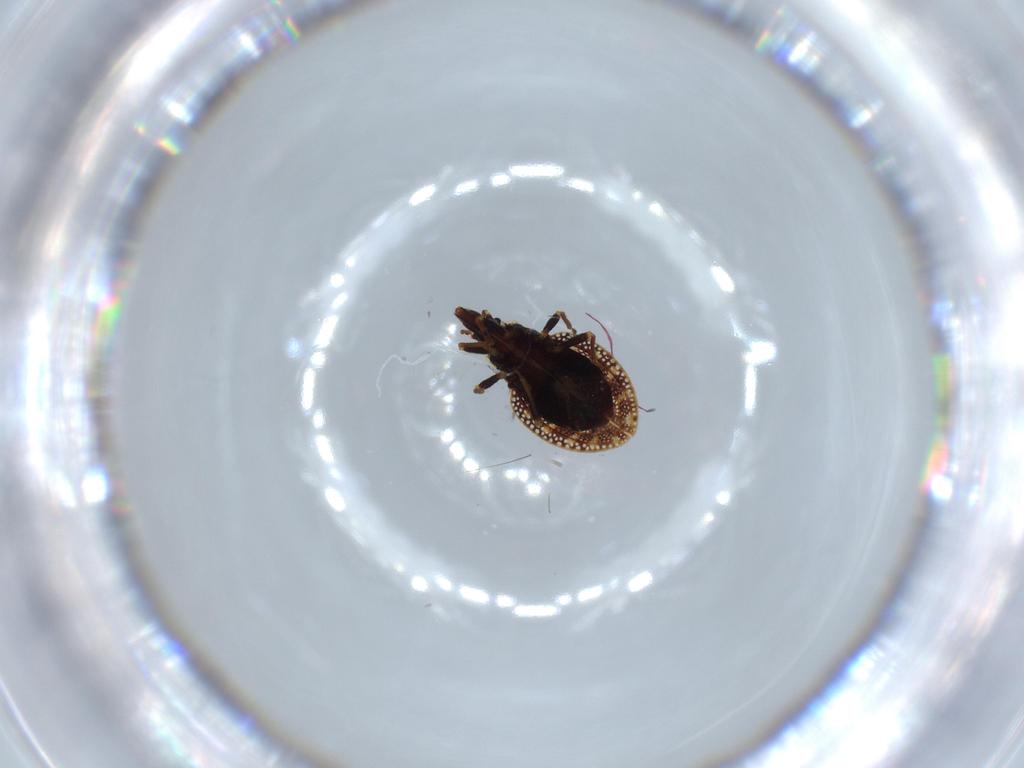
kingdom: Animalia
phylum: Arthropoda
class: Insecta
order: Hemiptera
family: Tingidae
